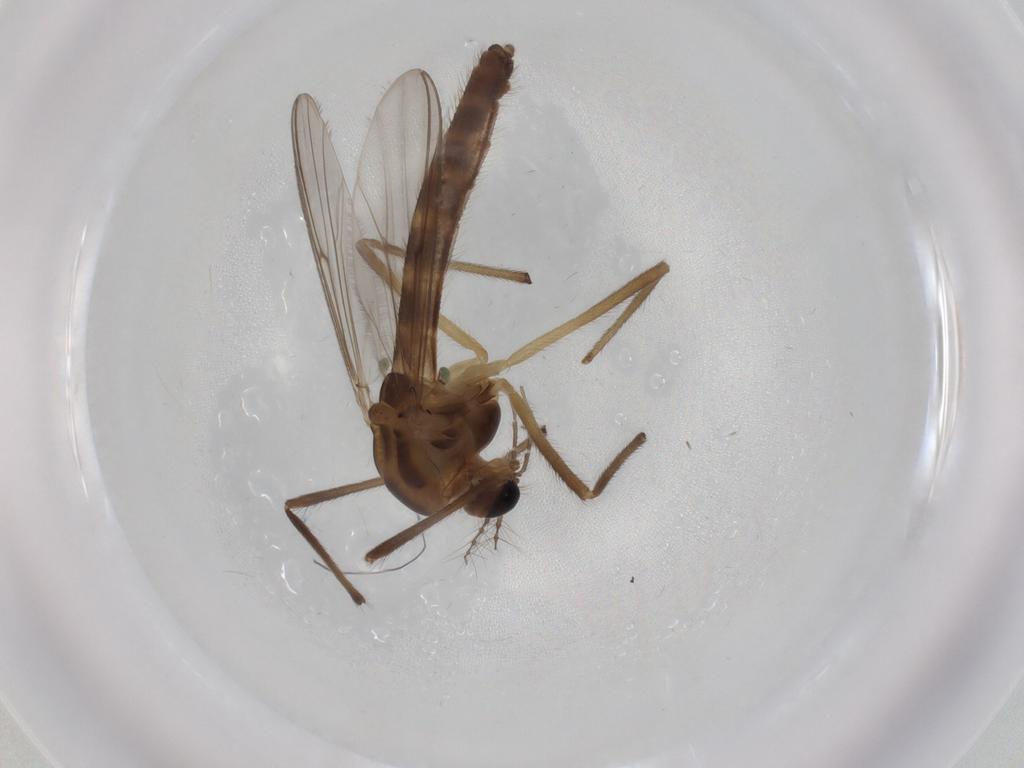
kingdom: Animalia
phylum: Arthropoda
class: Insecta
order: Diptera
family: Chironomidae
